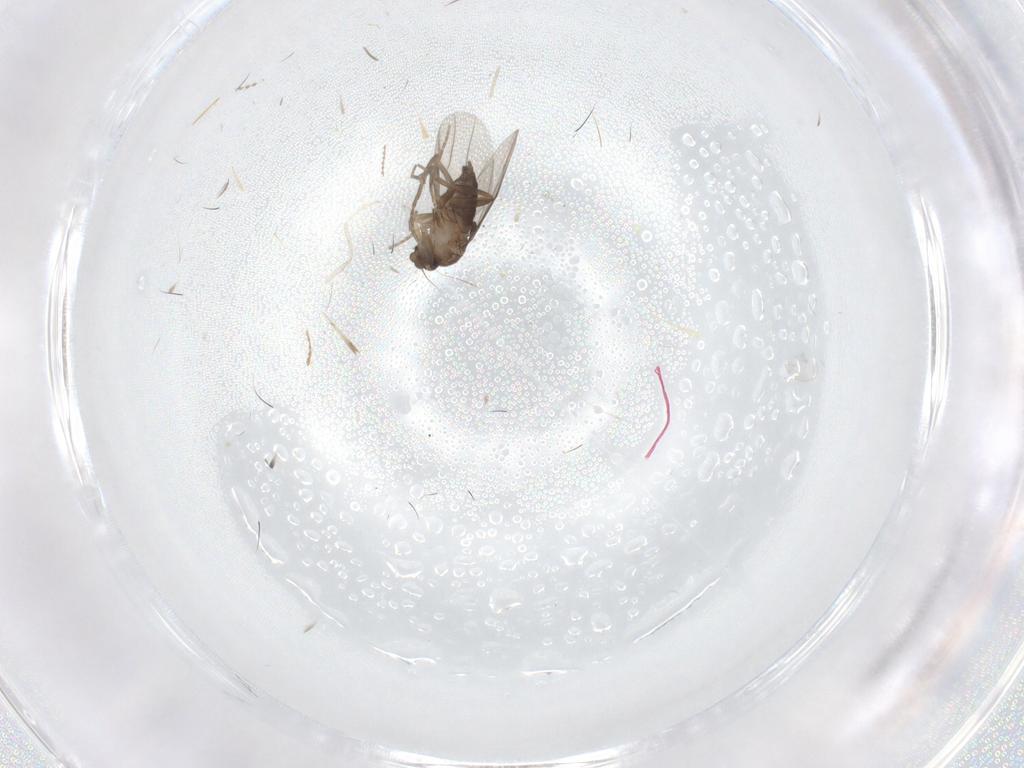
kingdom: Animalia
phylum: Arthropoda
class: Insecta
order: Diptera
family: Sciaridae
